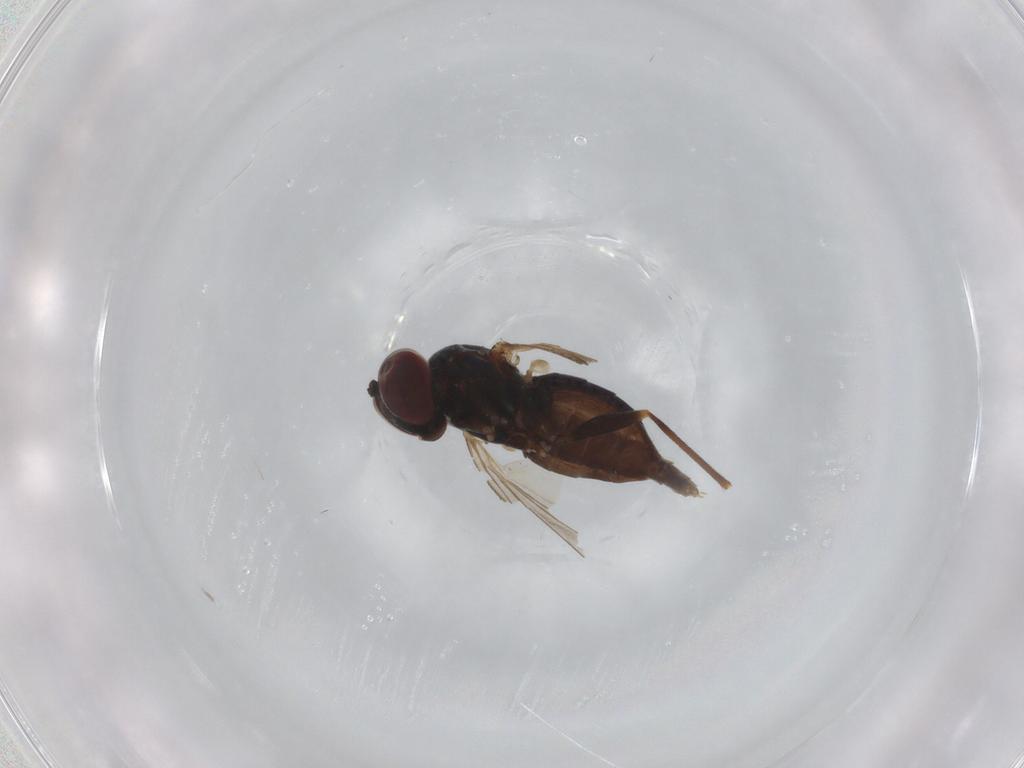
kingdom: Animalia
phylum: Arthropoda
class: Insecta
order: Diptera
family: Dolichopodidae
